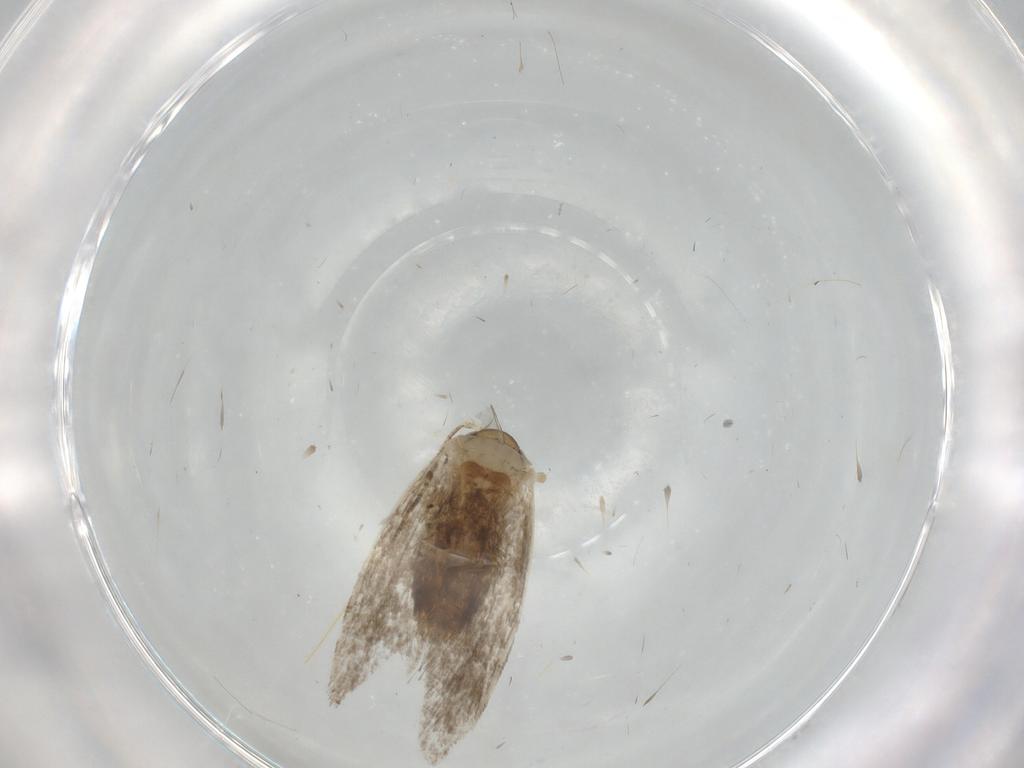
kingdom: Animalia
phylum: Arthropoda
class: Insecta
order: Lepidoptera
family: Tineidae
